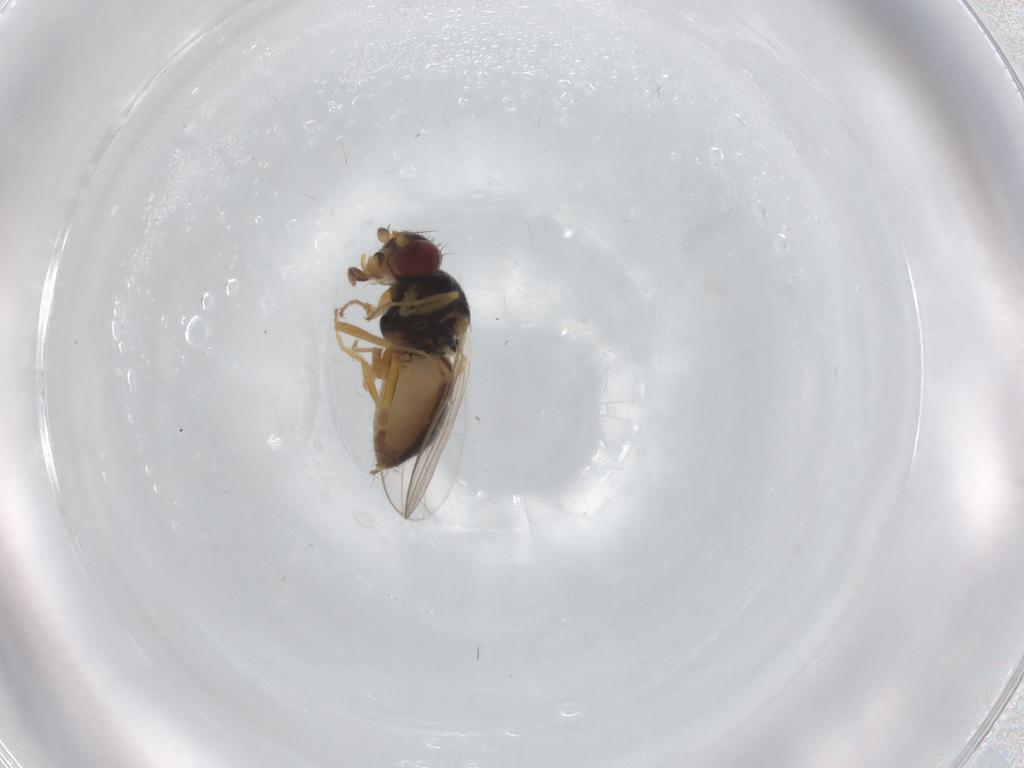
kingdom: Animalia
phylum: Arthropoda
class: Insecta
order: Diptera
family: Chloropidae
